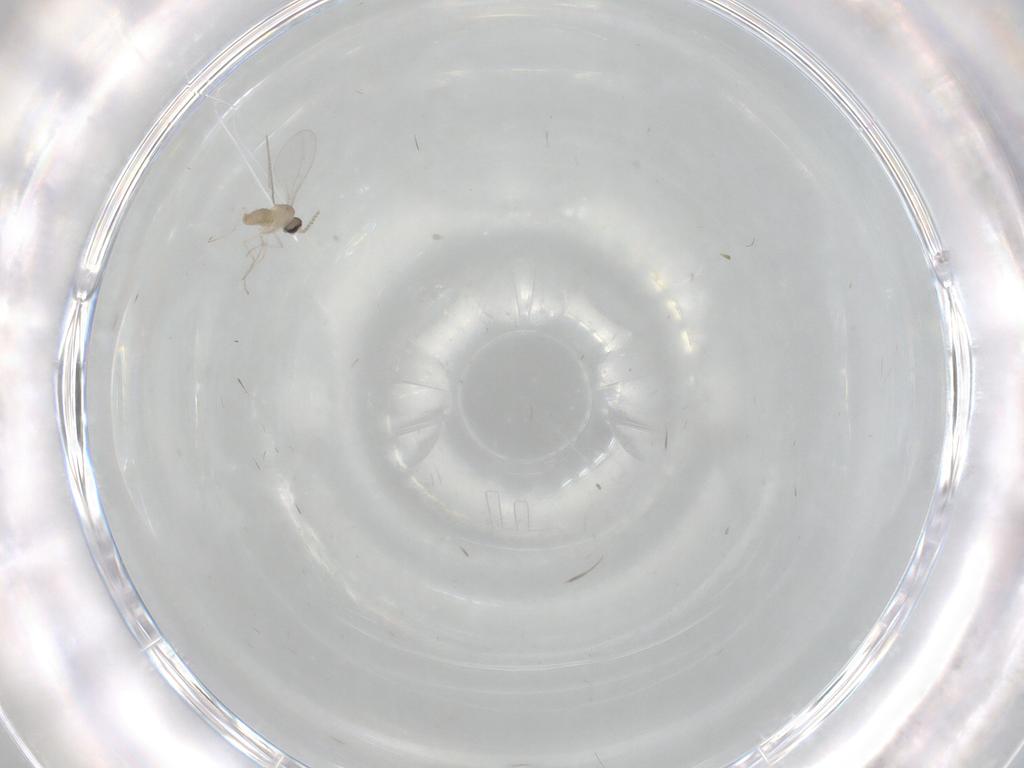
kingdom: Animalia
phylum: Arthropoda
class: Insecta
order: Diptera
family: Chironomidae
